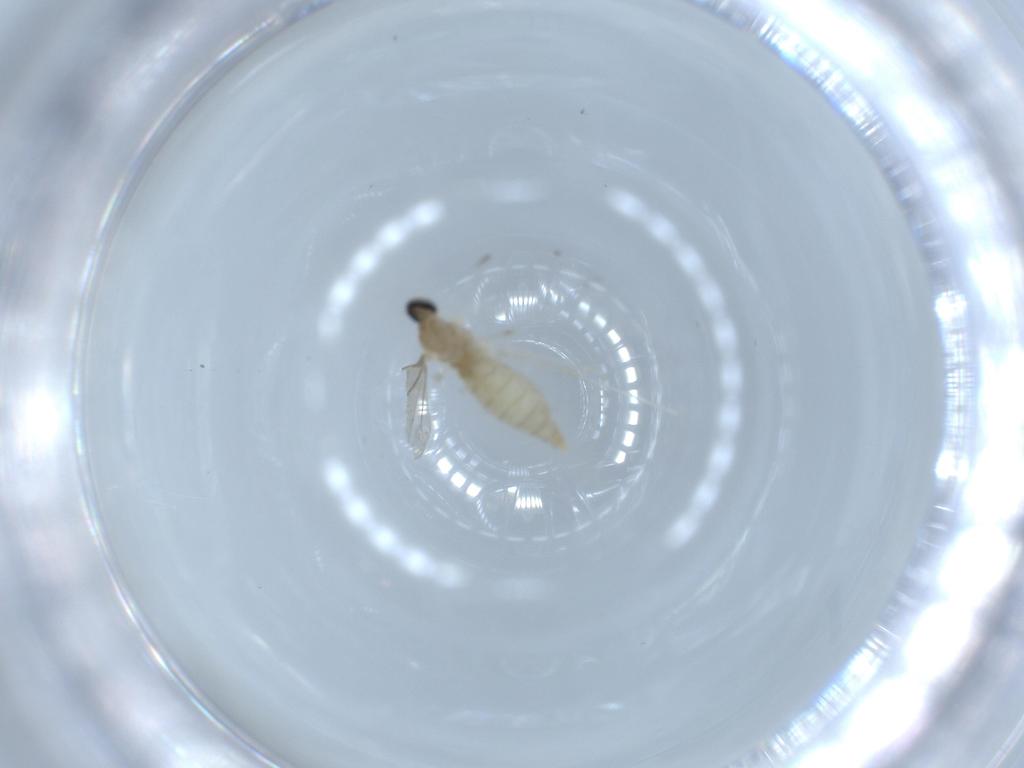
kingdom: Animalia
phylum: Arthropoda
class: Insecta
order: Diptera
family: Cecidomyiidae
